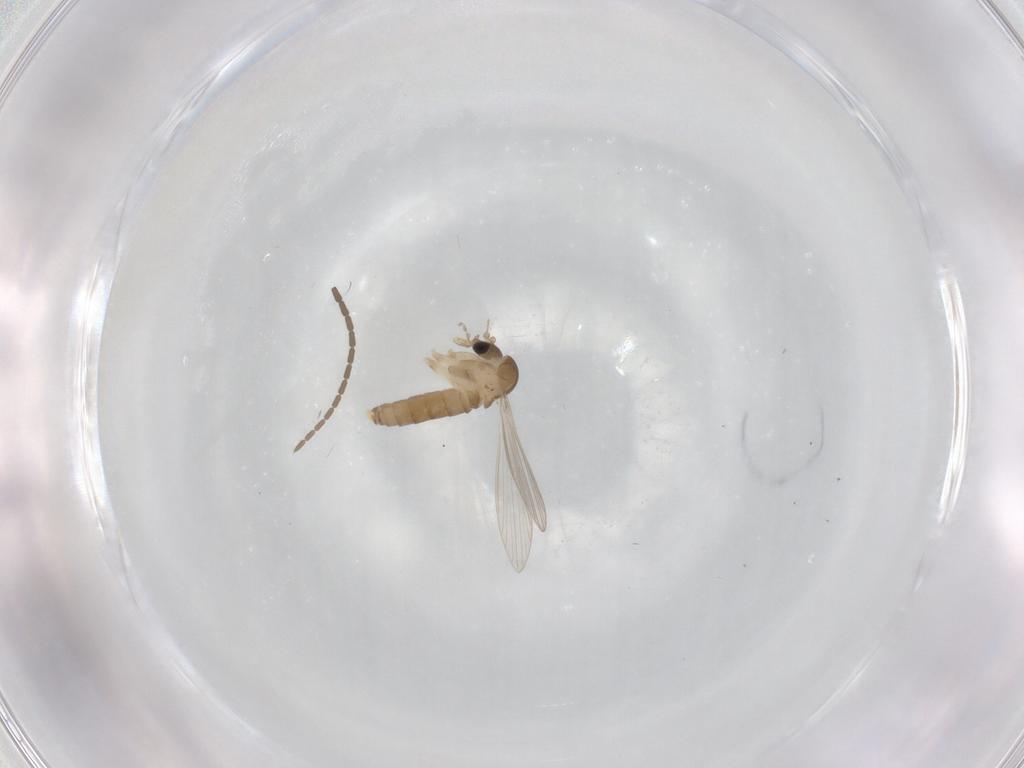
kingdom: Animalia
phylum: Arthropoda
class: Insecta
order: Diptera
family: Psychodidae
